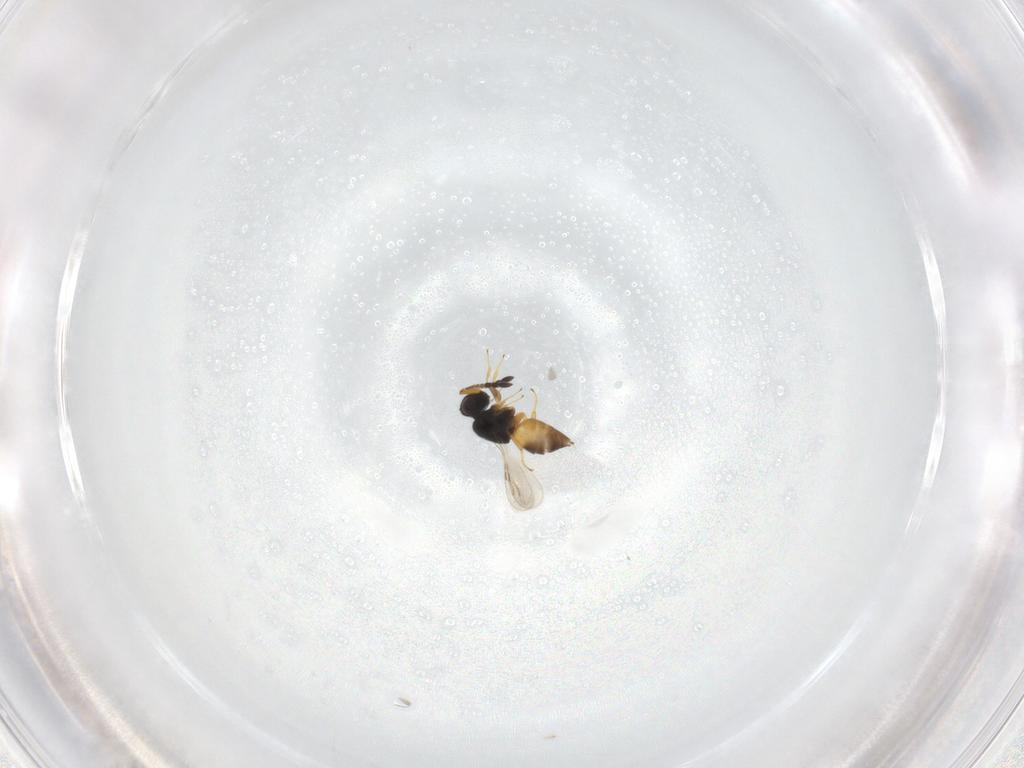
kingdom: Animalia
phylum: Arthropoda
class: Insecta
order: Hymenoptera
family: Ceraphronidae
